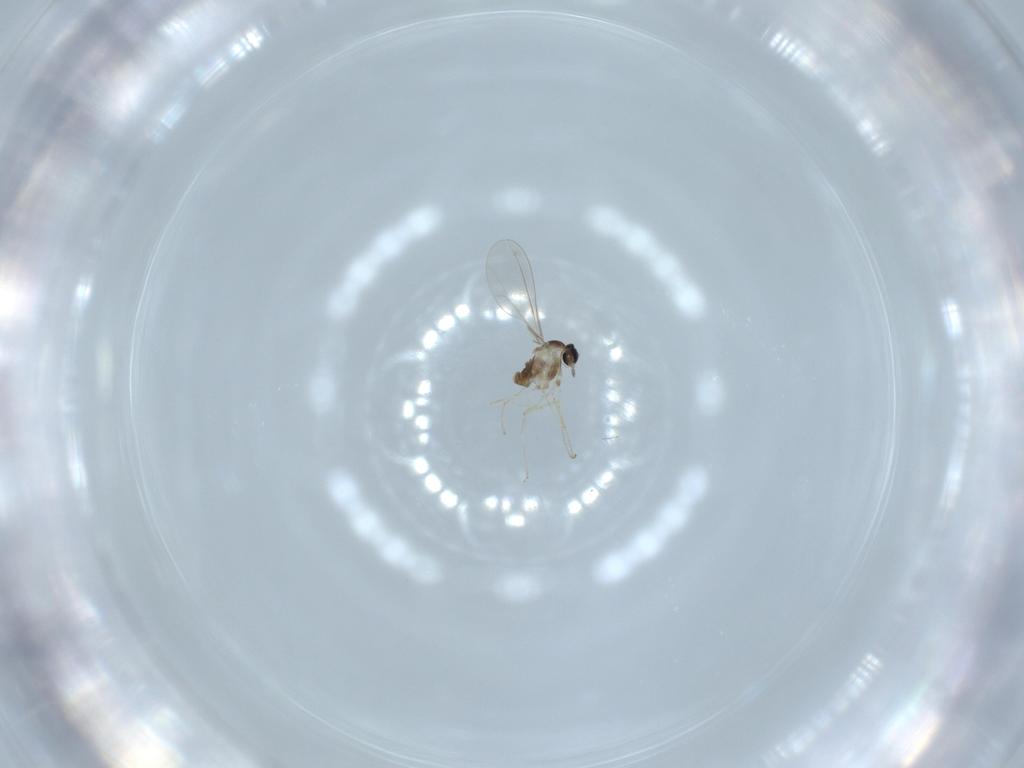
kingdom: Animalia
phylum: Arthropoda
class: Insecta
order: Diptera
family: Cecidomyiidae
